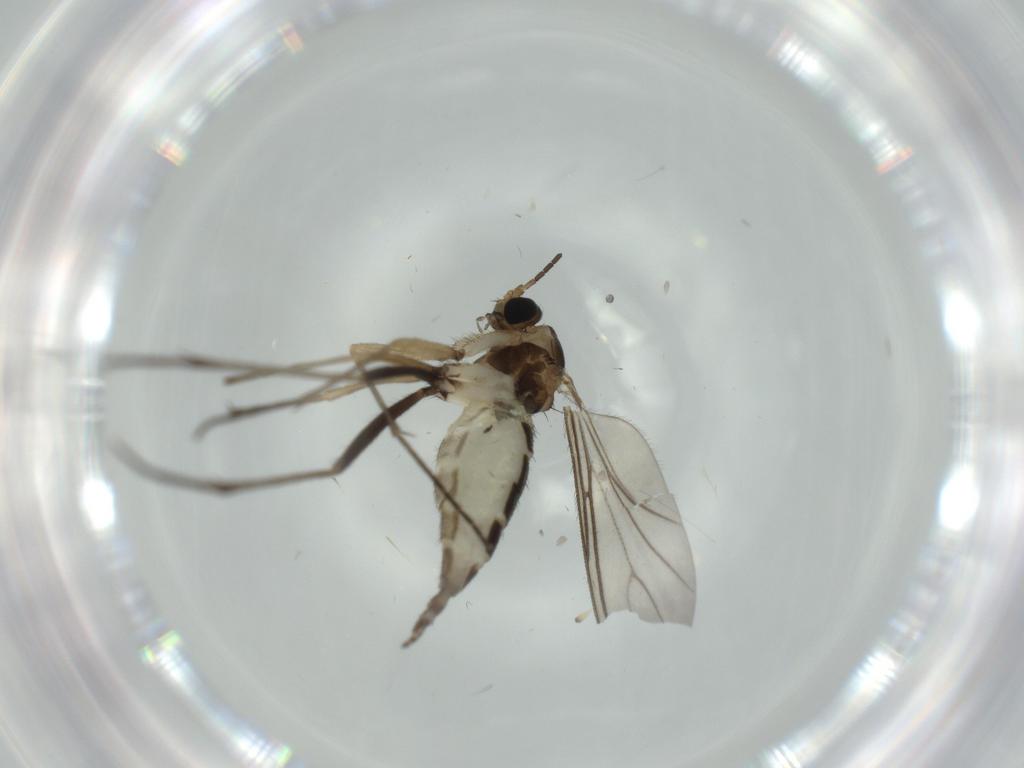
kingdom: Animalia
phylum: Arthropoda
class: Insecta
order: Diptera
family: Sciaridae
